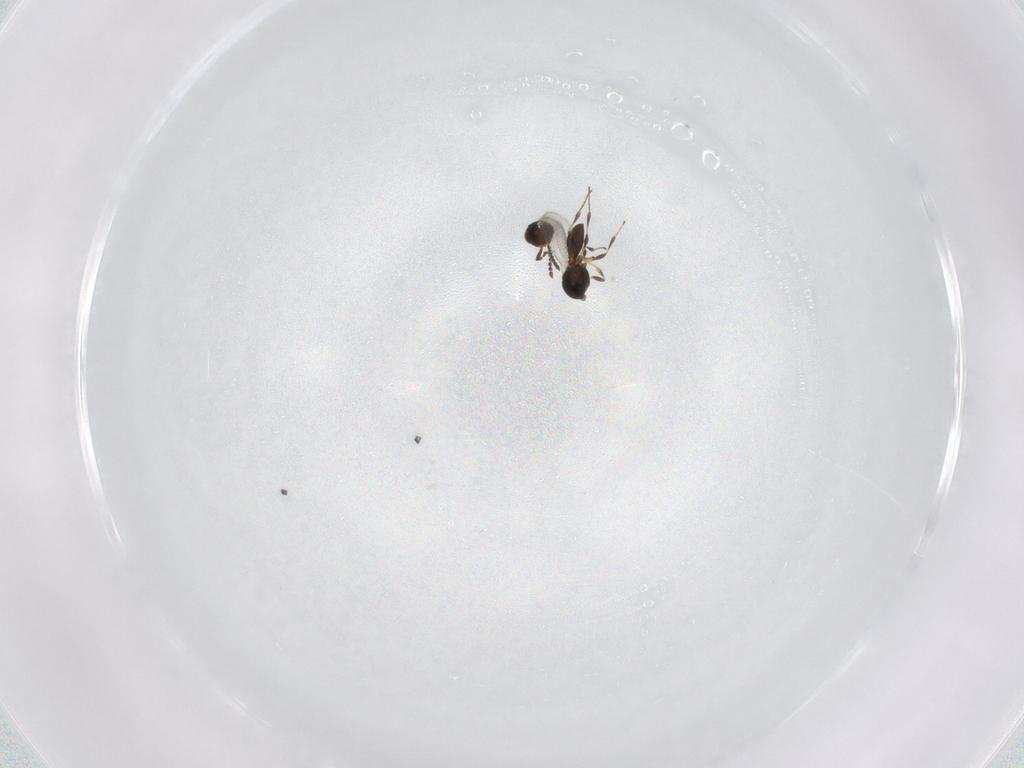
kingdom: Animalia
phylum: Arthropoda
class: Insecta
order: Hymenoptera
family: Platygastridae
